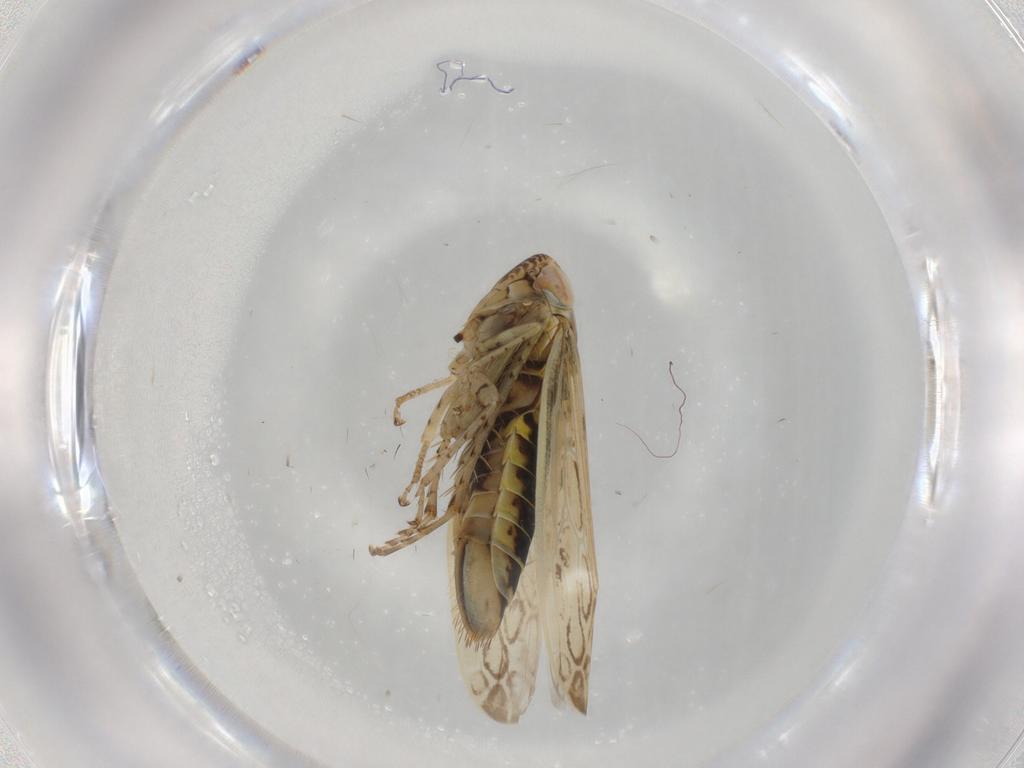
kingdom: Animalia
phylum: Arthropoda
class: Insecta
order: Hemiptera
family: Cicadellidae
